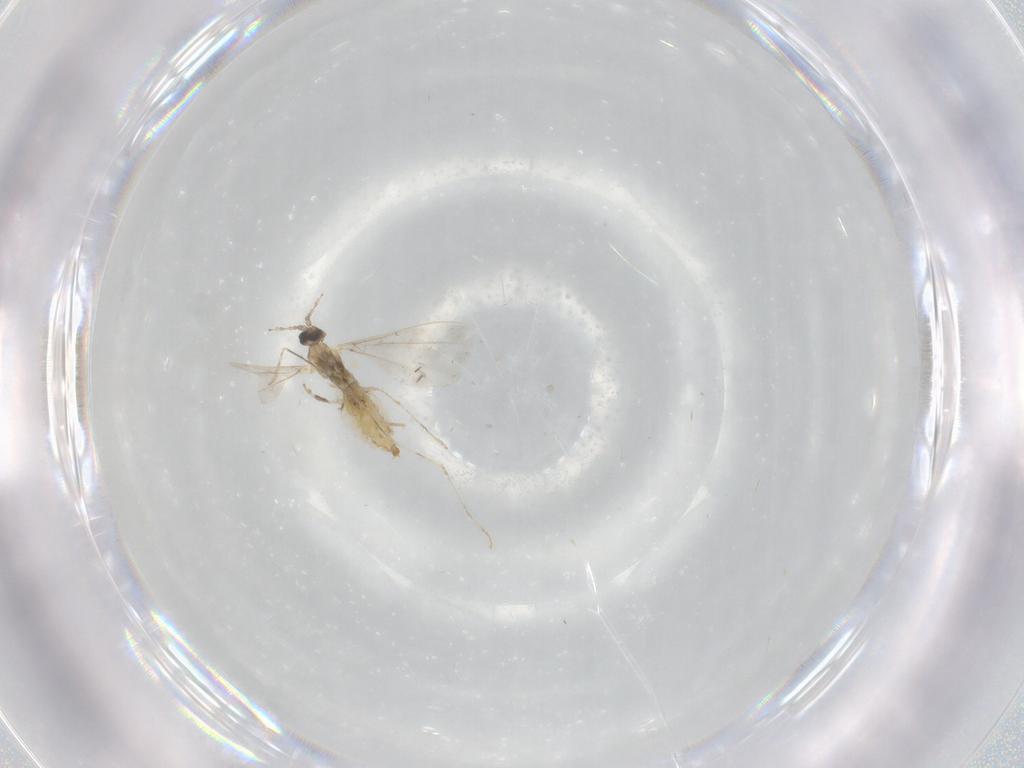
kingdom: Animalia
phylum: Arthropoda
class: Insecta
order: Diptera
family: Cecidomyiidae
